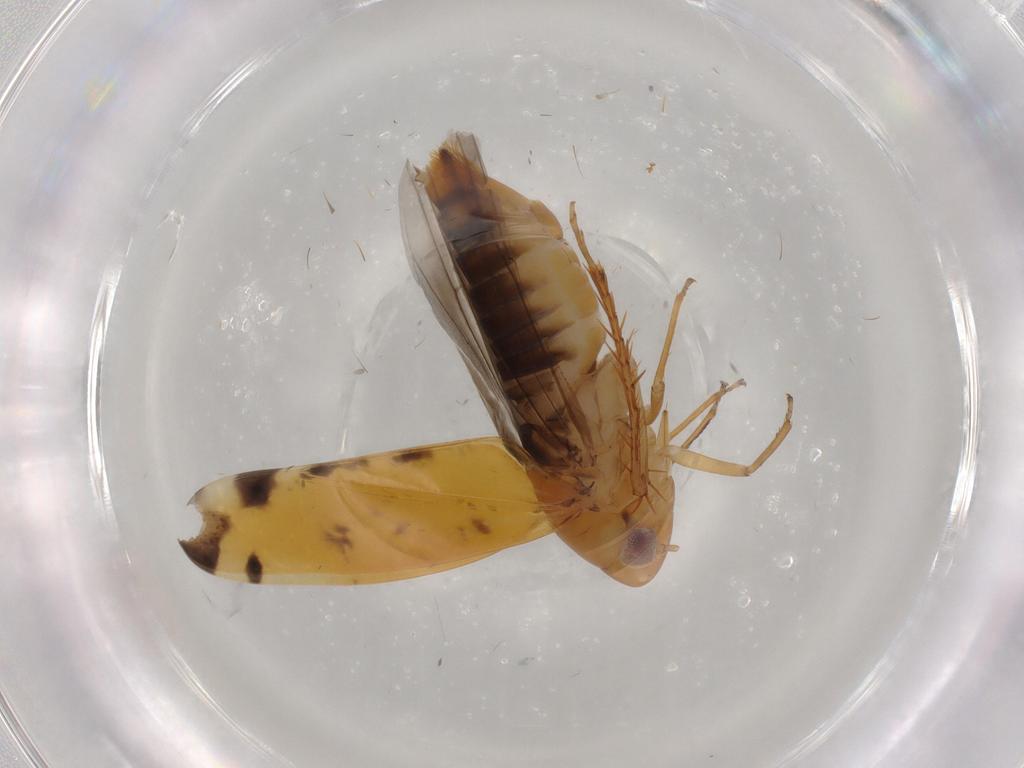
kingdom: Animalia
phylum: Arthropoda
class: Insecta
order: Hemiptera
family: Cicadellidae
